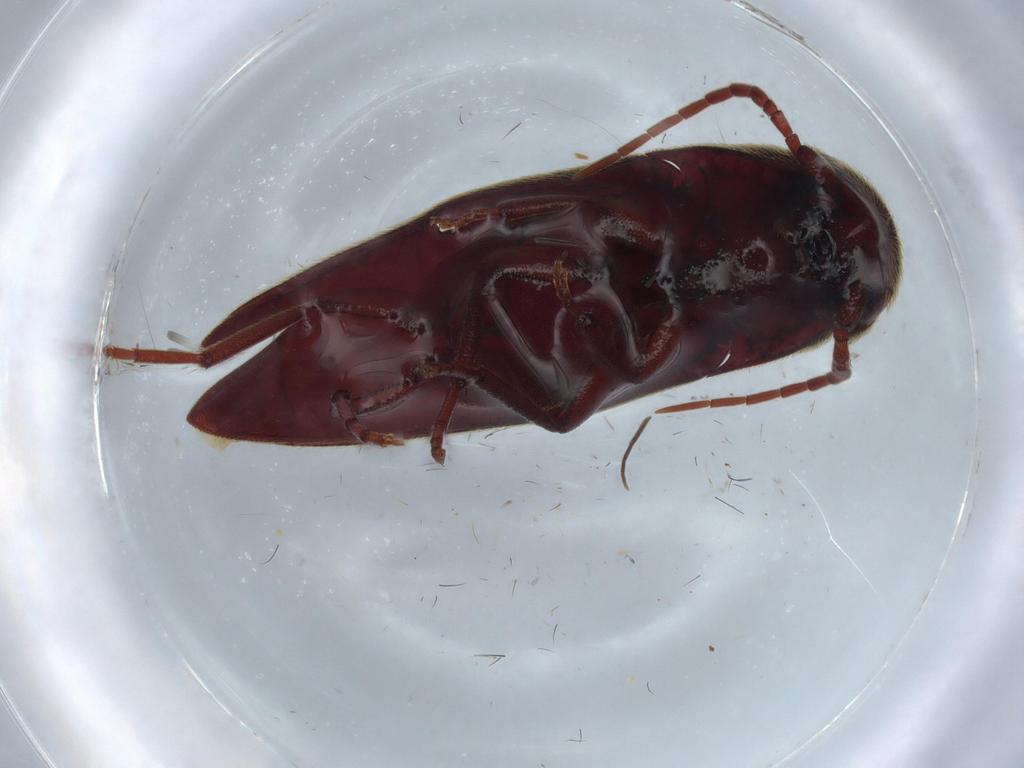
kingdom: Animalia
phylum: Arthropoda
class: Insecta
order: Coleoptera
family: Eucnemidae
